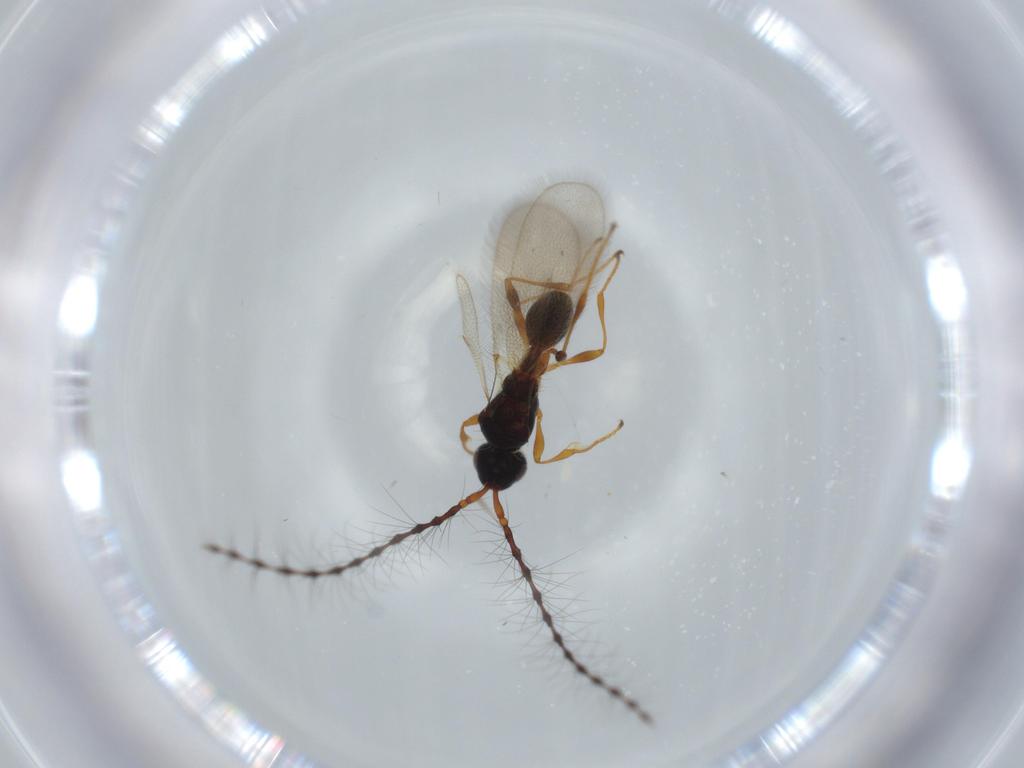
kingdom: Animalia
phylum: Arthropoda
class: Insecta
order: Hymenoptera
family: Diapriidae
